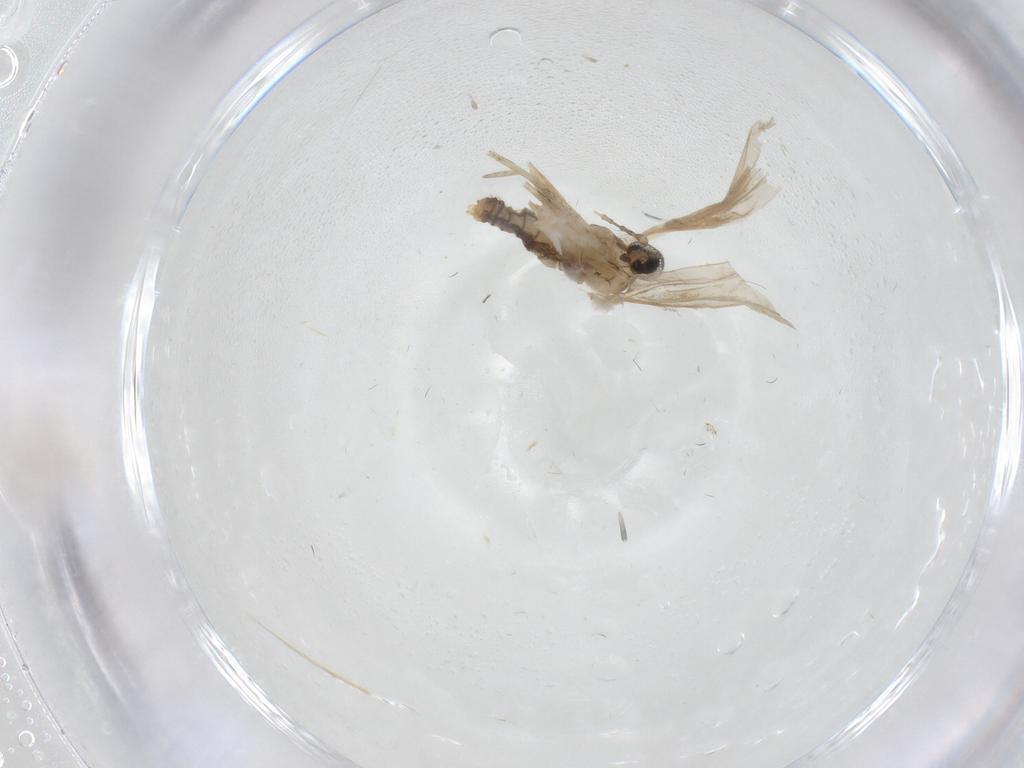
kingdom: Animalia
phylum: Arthropoda
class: Insecta
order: Diptera
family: Cecidomyiidae
